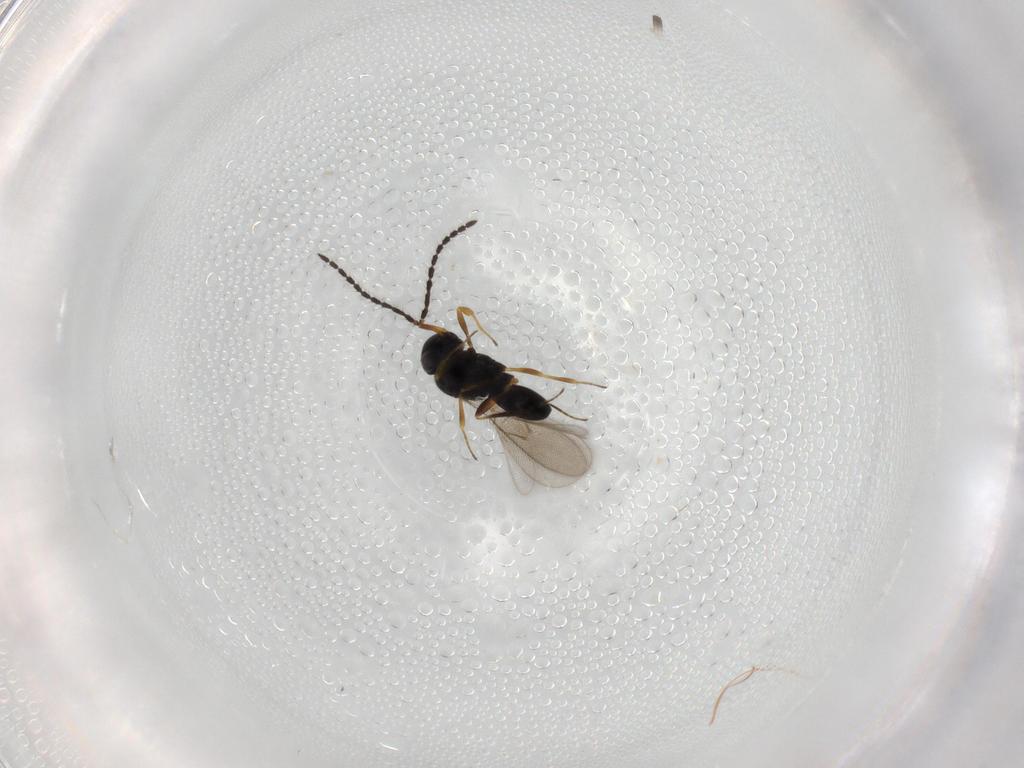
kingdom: Animalia
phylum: Arthropoda
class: Insecta
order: Hymenoptera
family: Scelionidae
